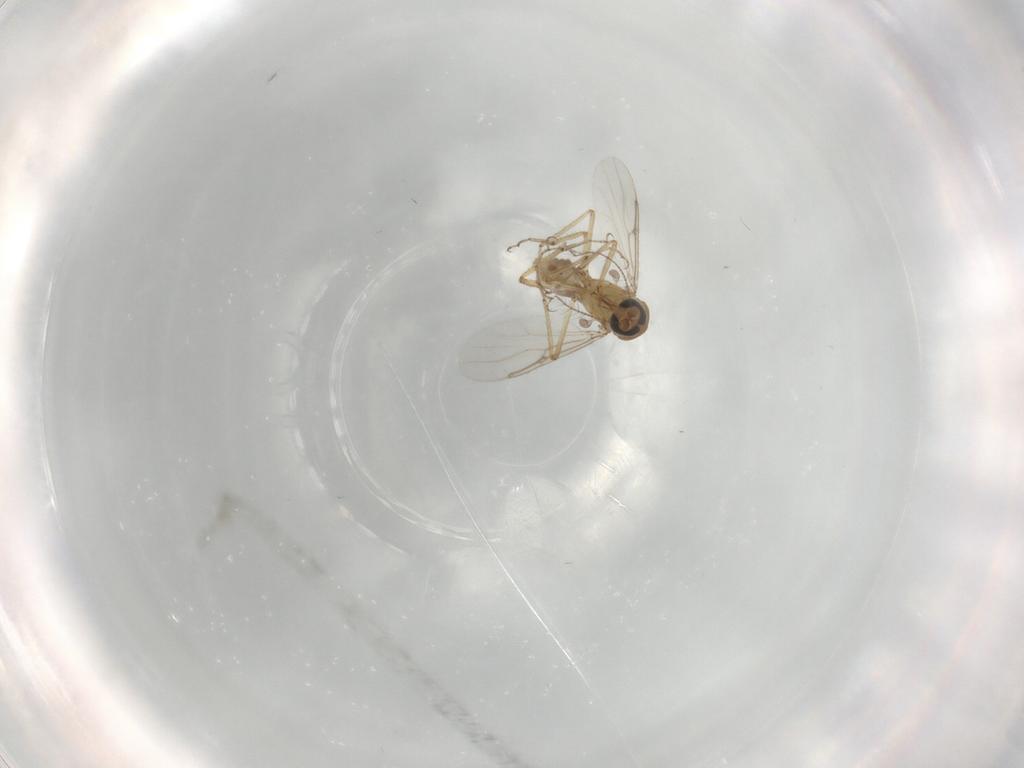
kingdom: Animalia
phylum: Arthropoda
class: Insecta
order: Diptera
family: Ceratopogonidae
